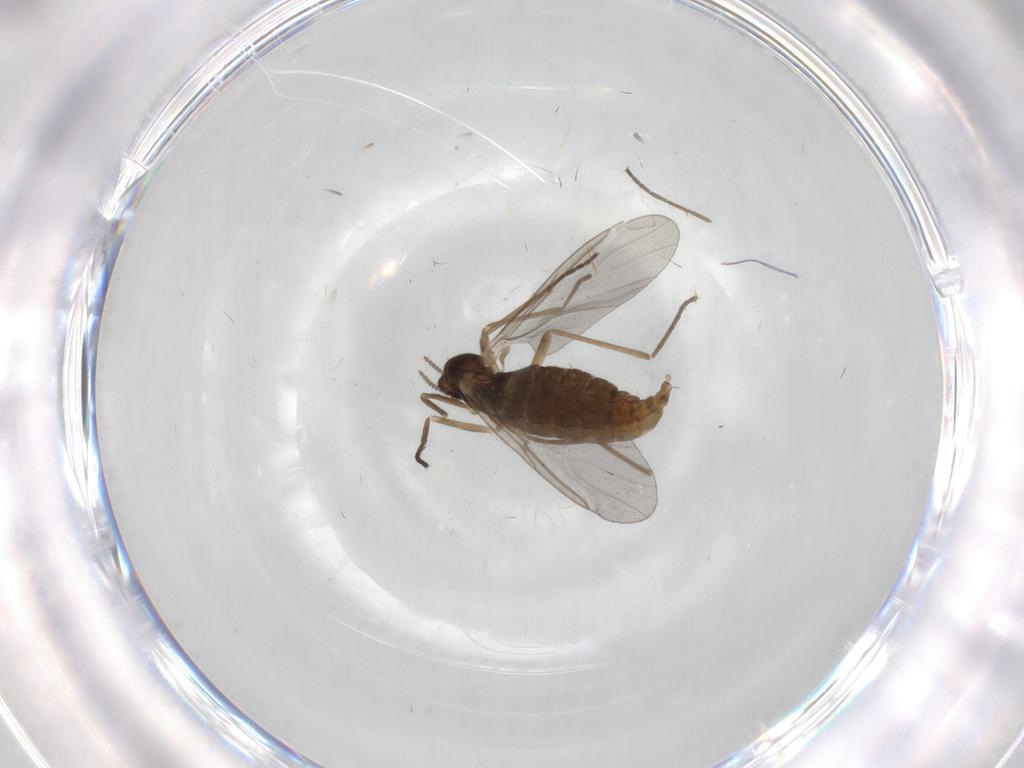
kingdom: Animalia
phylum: Arthropoda
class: Insecta
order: Diptera
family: Cecidomyiidae
